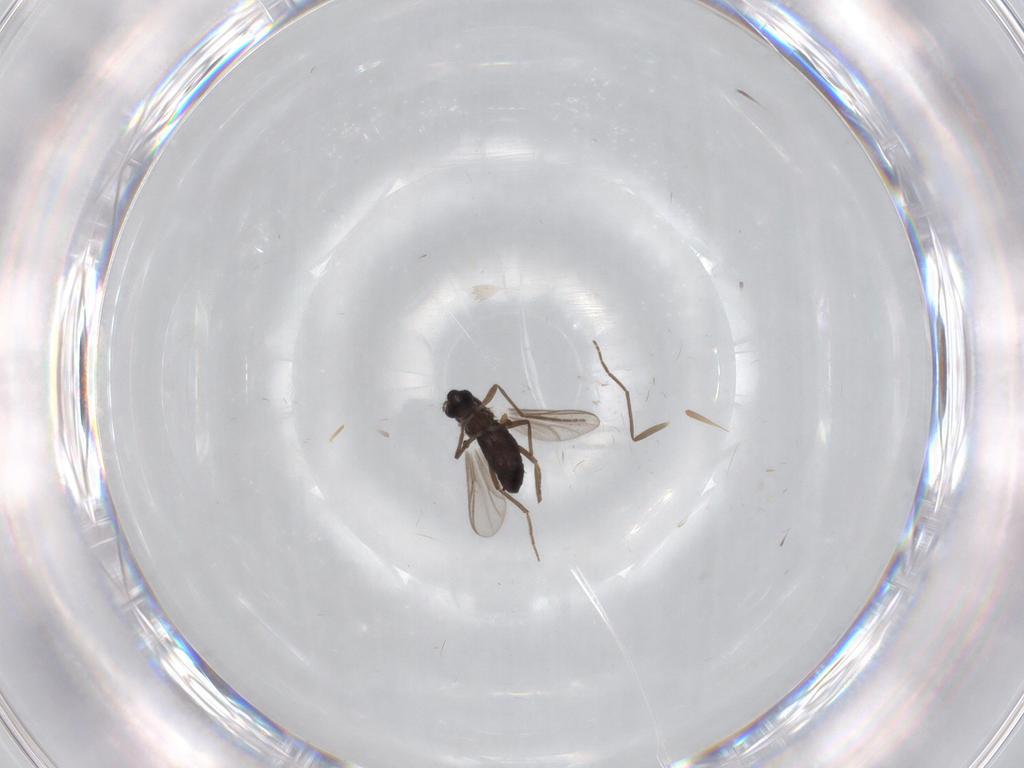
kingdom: Animalia
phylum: Arthropoda
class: Insecta
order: Diptera
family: Chironomidae
